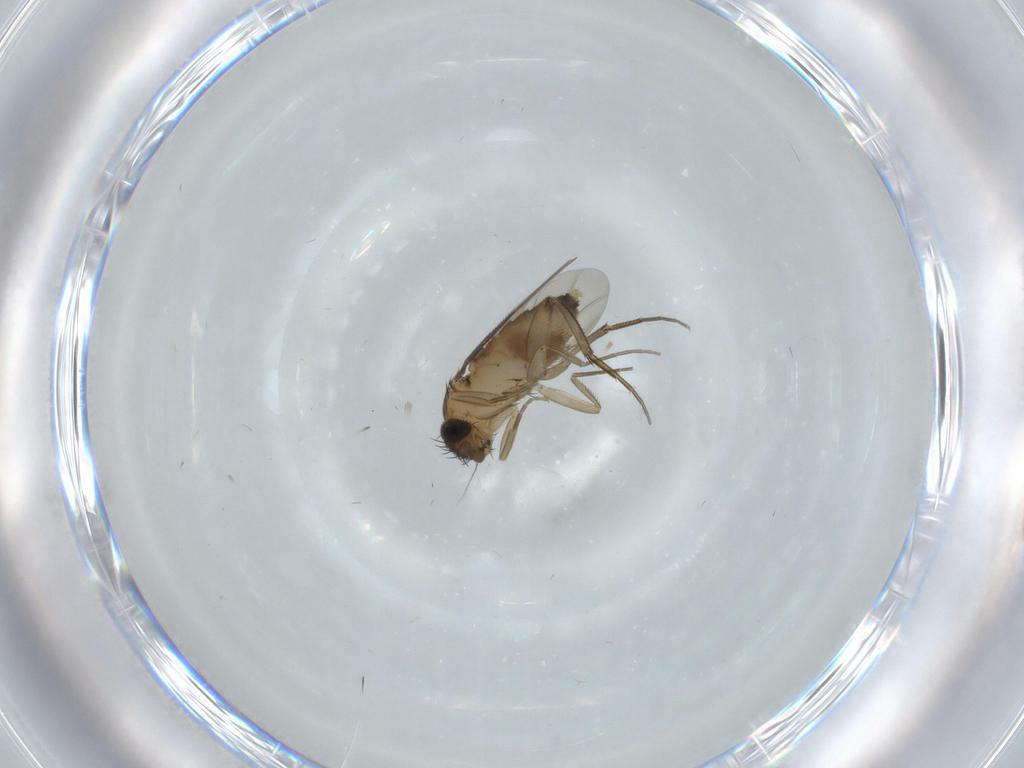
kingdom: Animalia
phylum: Arthropoda
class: Insecta
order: Diptera
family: Phoridae
